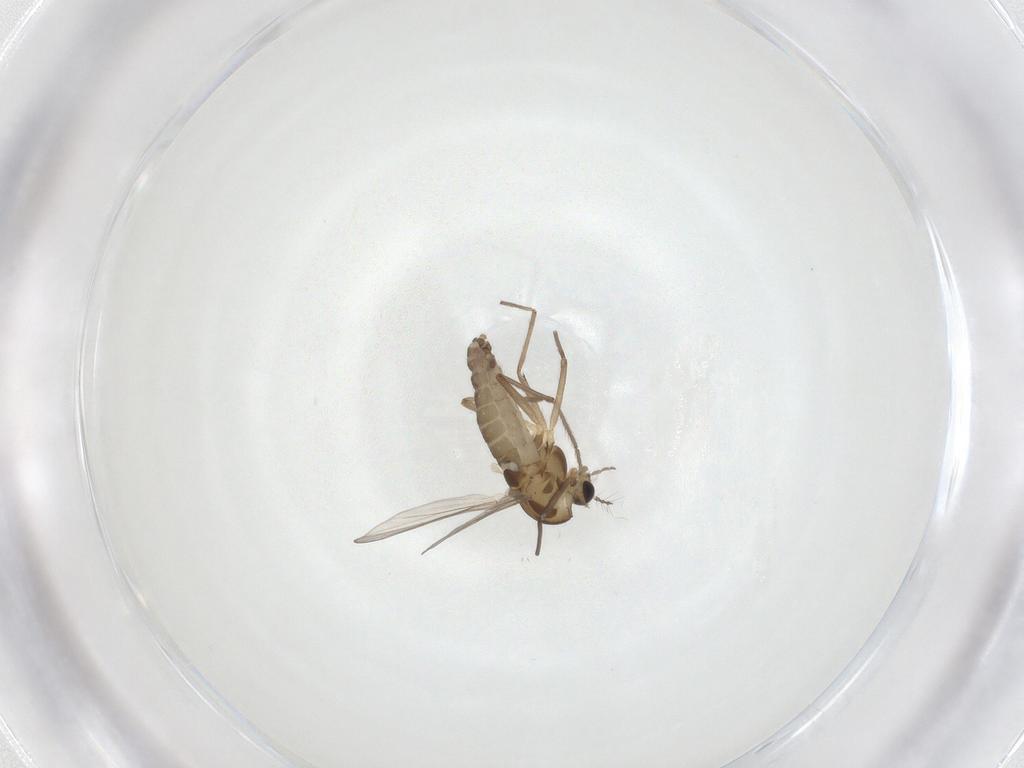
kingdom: Animalia
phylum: Arthropoda
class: Insecta
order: Diptera
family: Chironomidae
